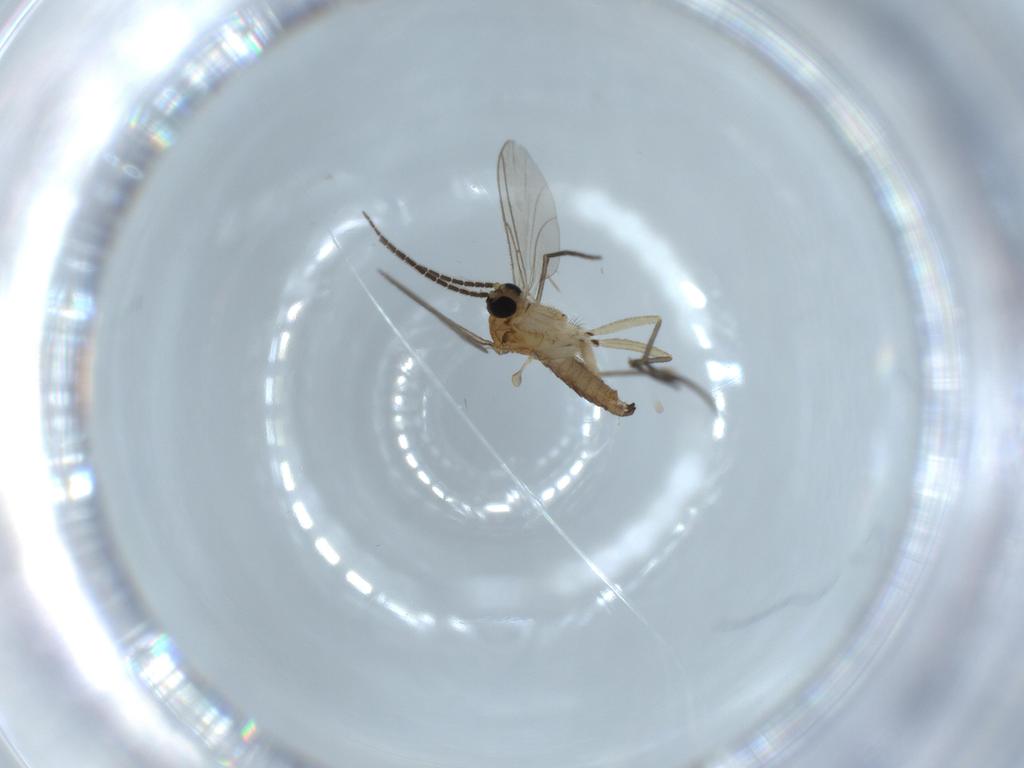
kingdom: Animalia
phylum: Arthropoda
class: Insecta
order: Diptera
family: Sciaridae
